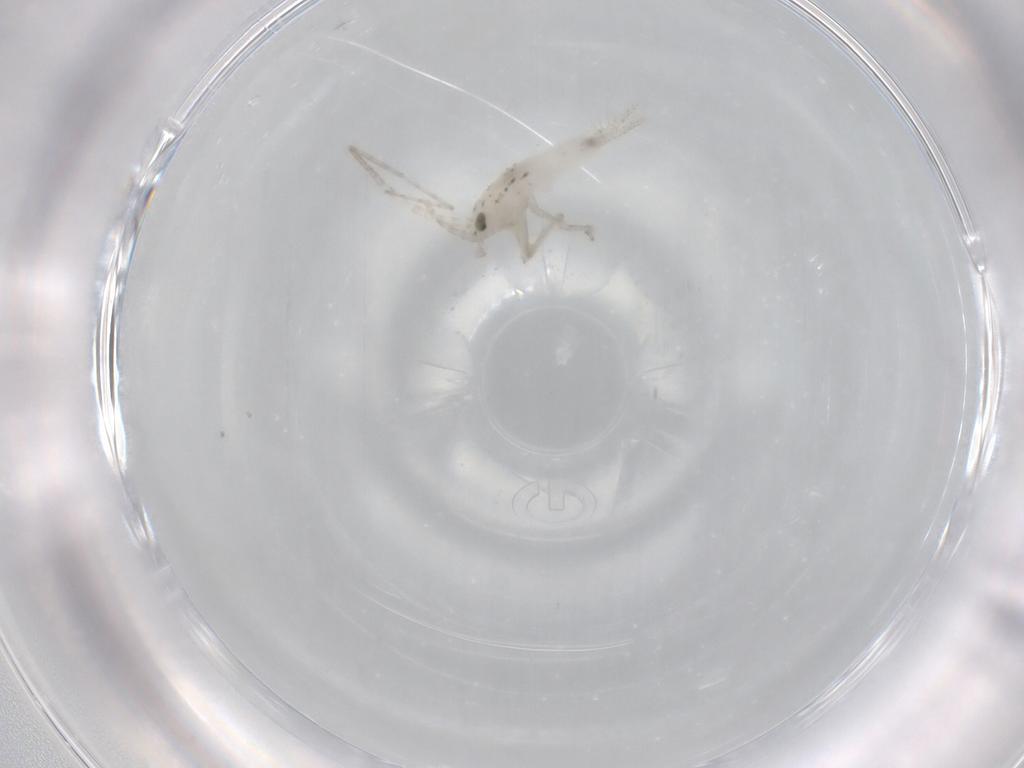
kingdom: Animalia
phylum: Arthropoda
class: Insecta
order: Orthoptera
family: Trigonidiidae
